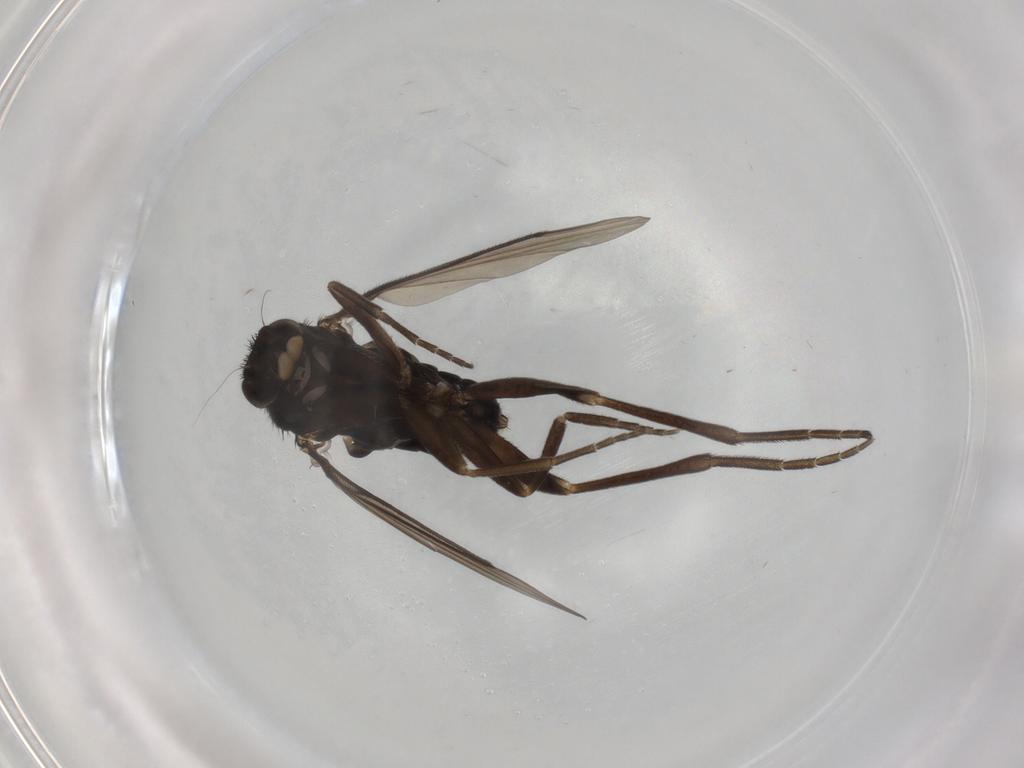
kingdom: Animalia
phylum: Arthropoda
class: Insecta
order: Diptera
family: Phoridae
